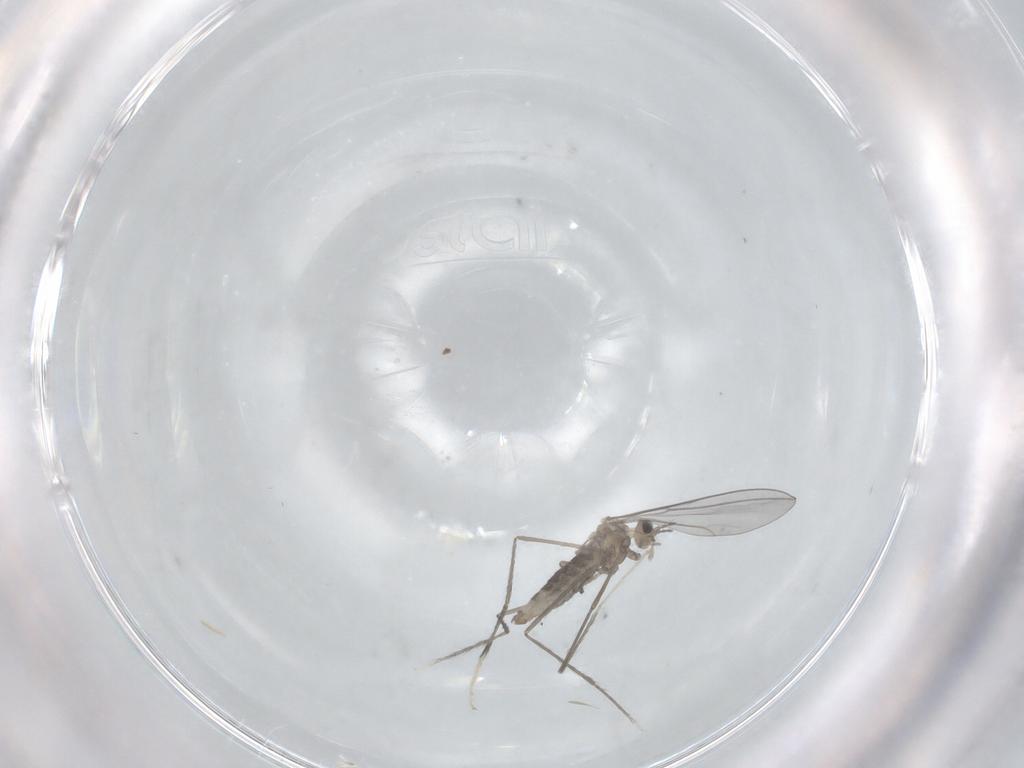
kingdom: Animalia
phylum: Arthropoda
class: Insecta
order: Diptera
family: Cecidomyiidae
